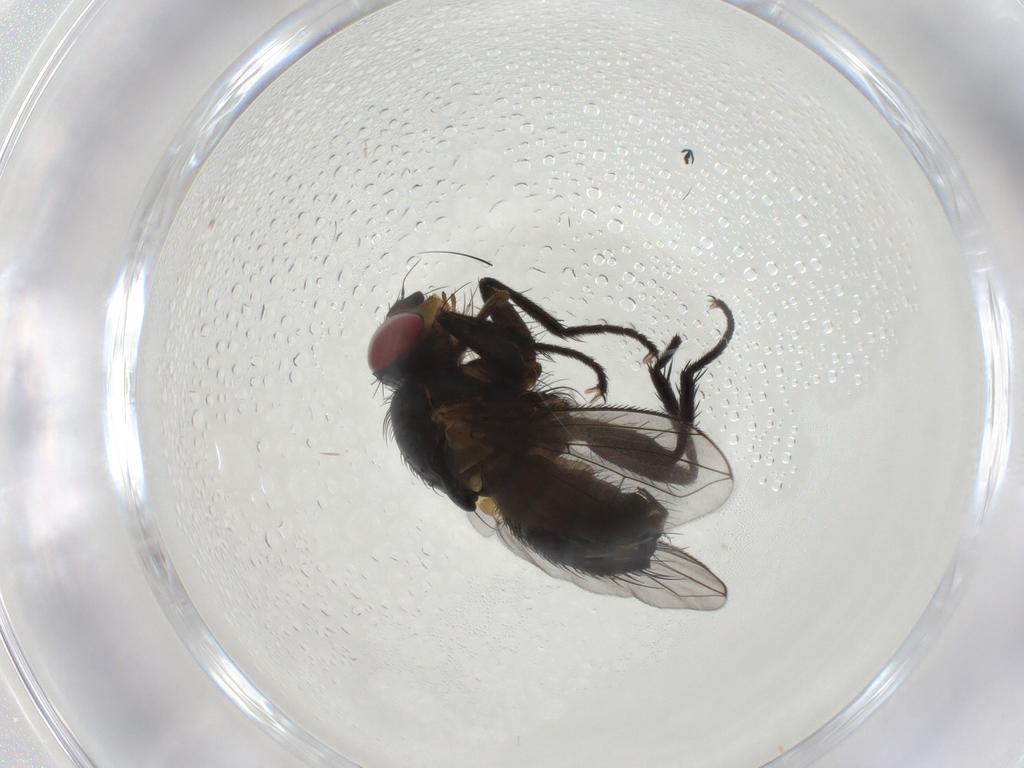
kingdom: Animalia
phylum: Arthropoda
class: Insecta
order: Diptera
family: Calliphoridae
